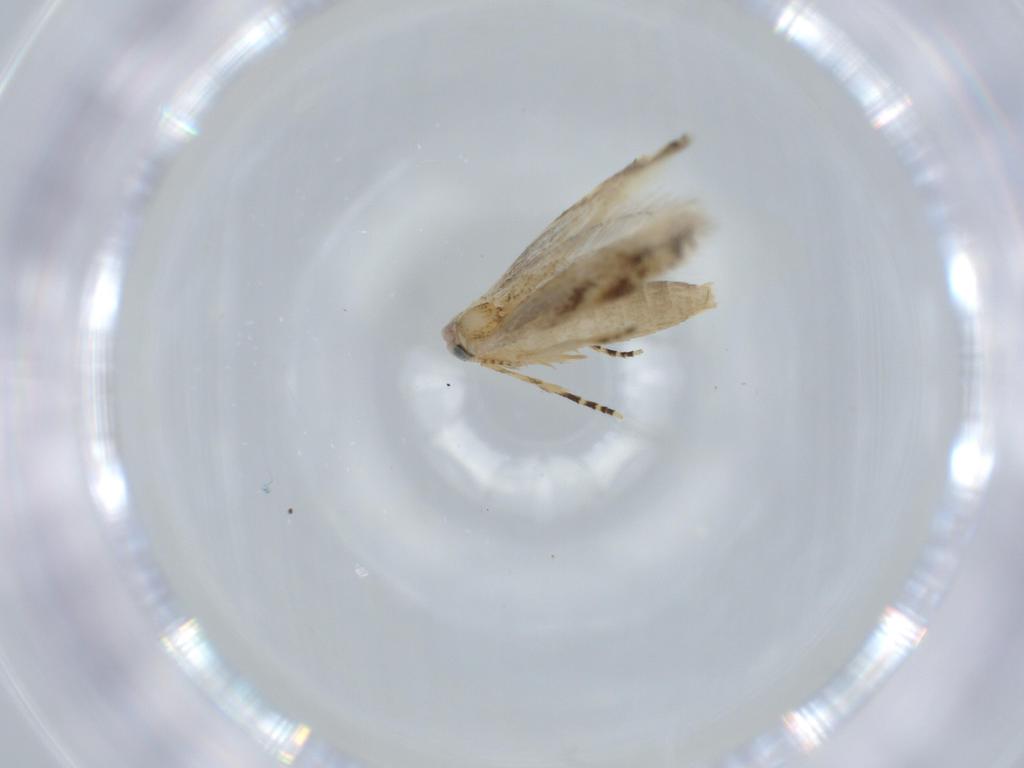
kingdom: Animalia
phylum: Arthropoda
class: Insecta
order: Lepidoptera
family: Bucculatricidae
